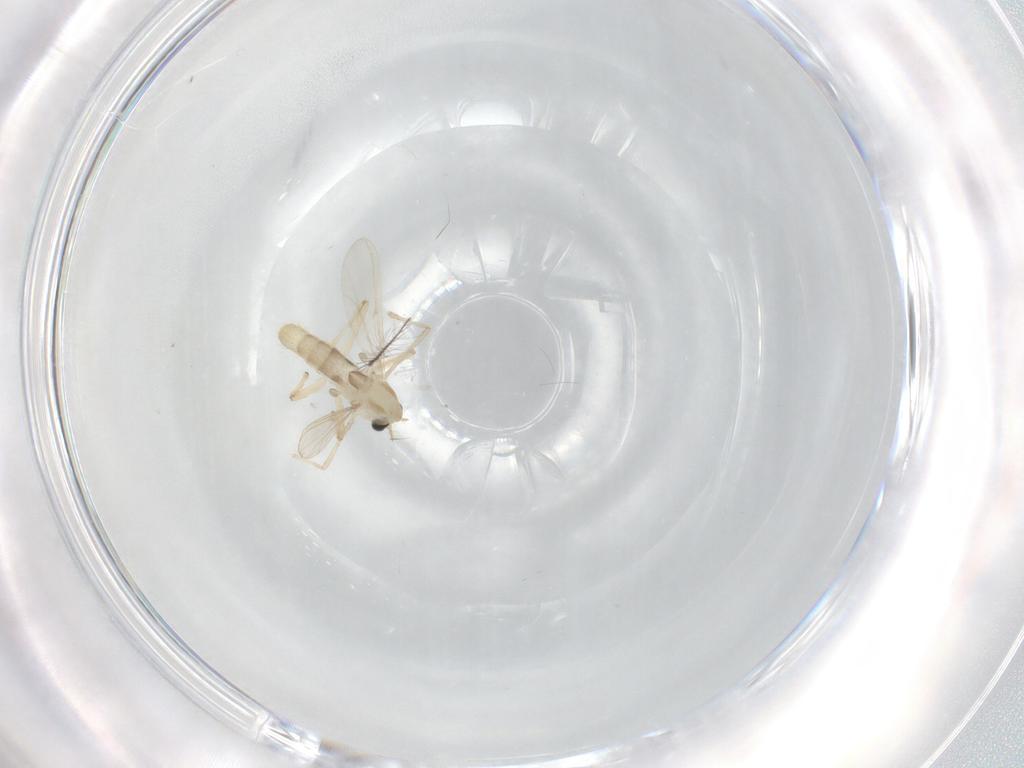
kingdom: Animalia
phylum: Arthropoda
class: Insecta
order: Diptera
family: Chironomidae
